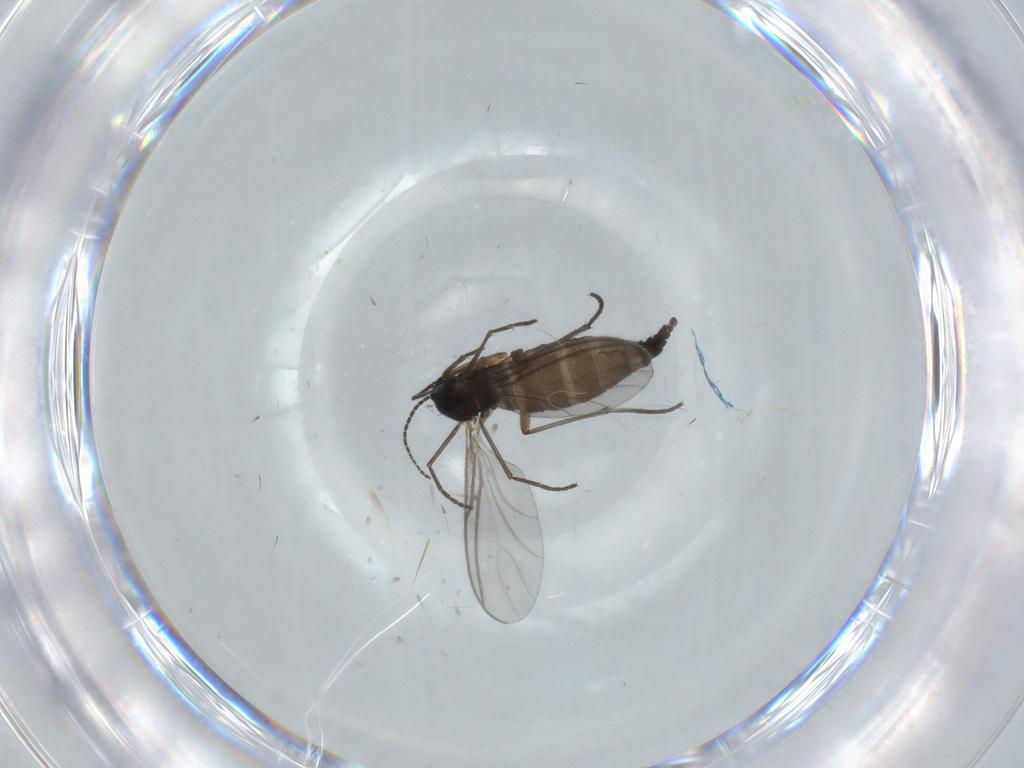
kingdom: Animalia
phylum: Arthropoda
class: Insecta
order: Diptera
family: Sciaridae
